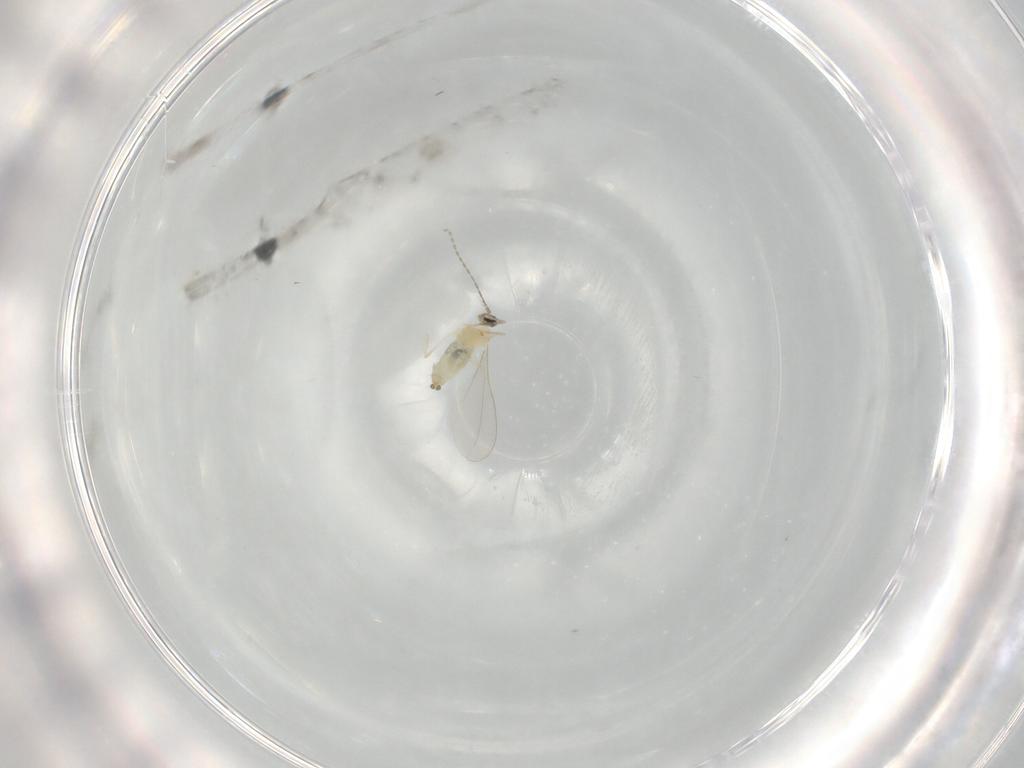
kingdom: Animalia
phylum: Arthropoda
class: Insecta
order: Diptera
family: Cecidomyiidae
